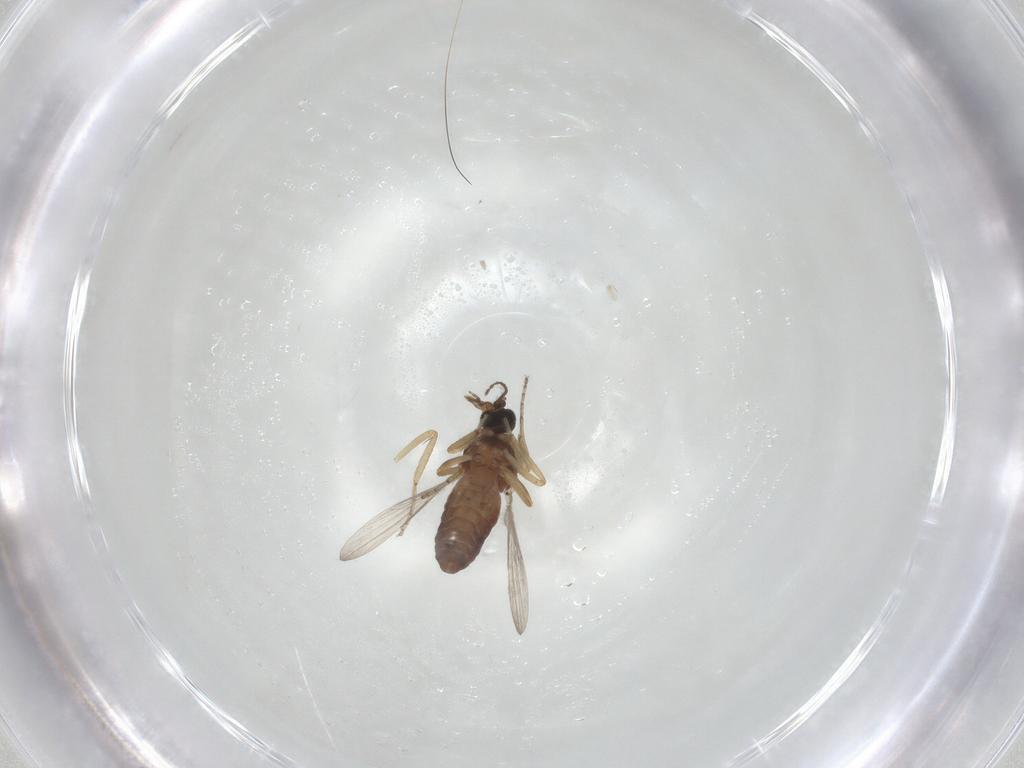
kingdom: Animalia
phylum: Arthropoda
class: Insecta
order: Diptera
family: Ceratopogonidae
